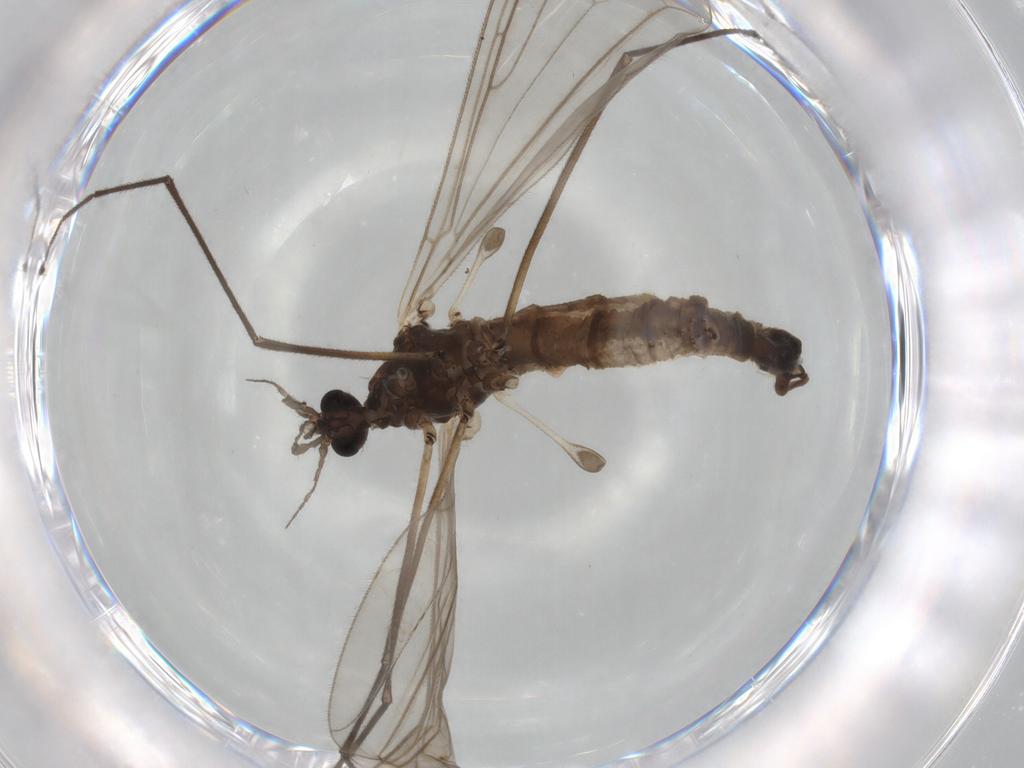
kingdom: Animalia
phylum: Arthropoda
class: Insecta
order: Diptera
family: Trichoceridae
